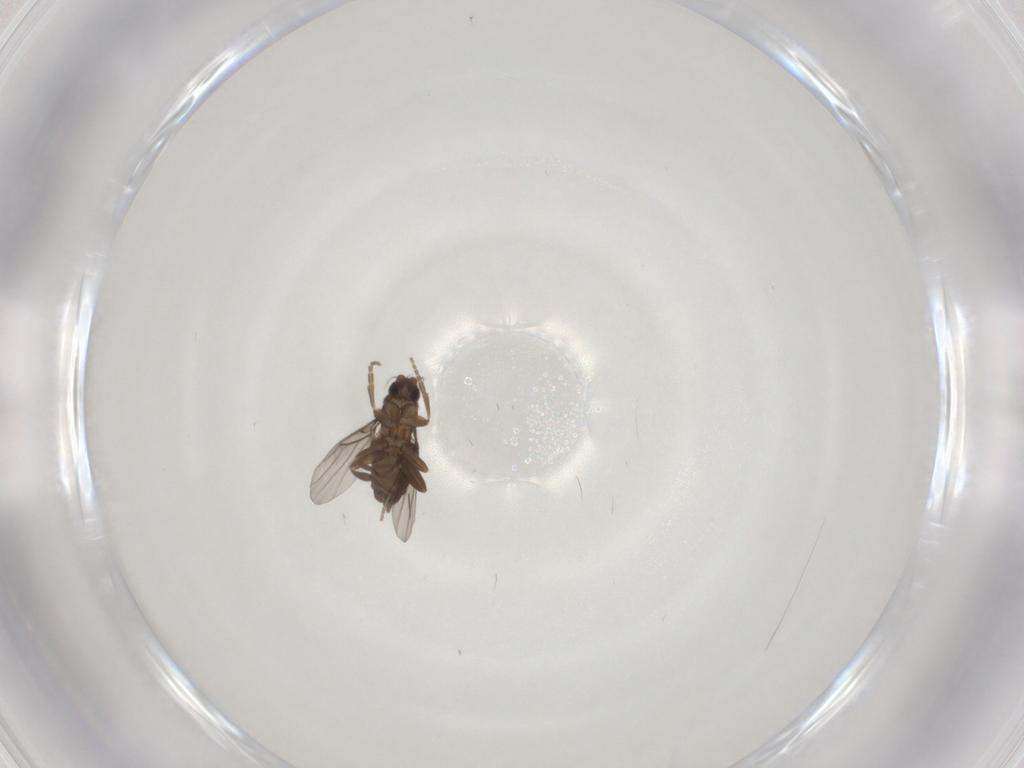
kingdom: Animalia
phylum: Arthropoda
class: Insecta
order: Diptera
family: Phoridae
